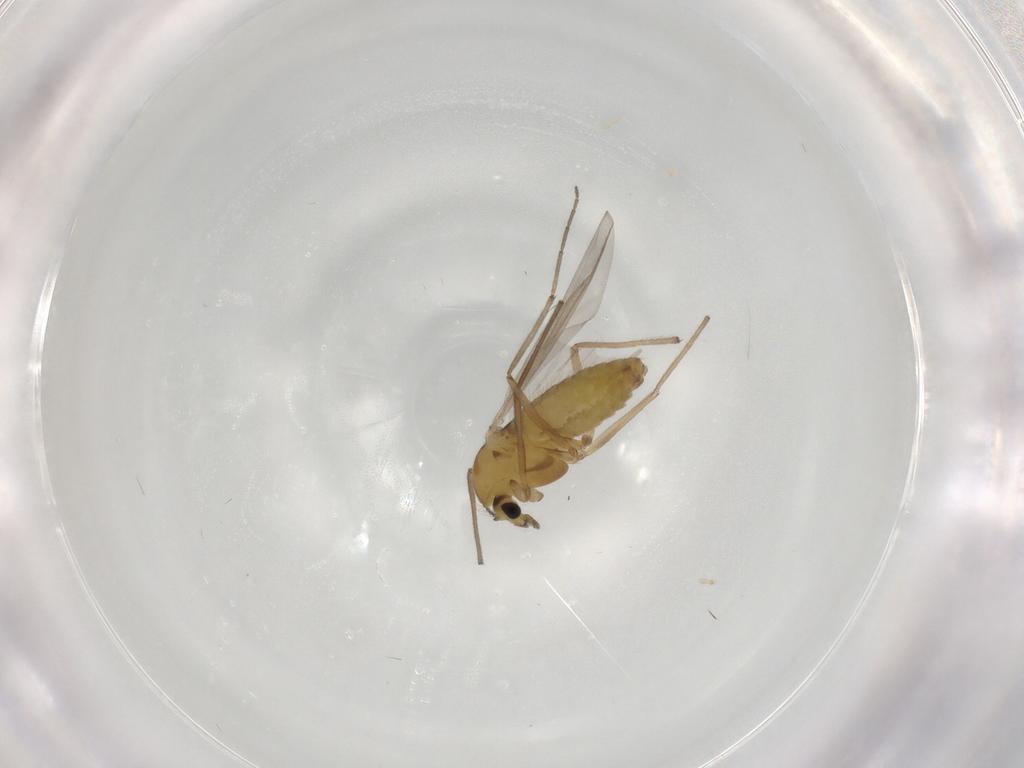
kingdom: Animalia
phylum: Arthropoda
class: Insecta
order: Diptera
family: Chironomidae
